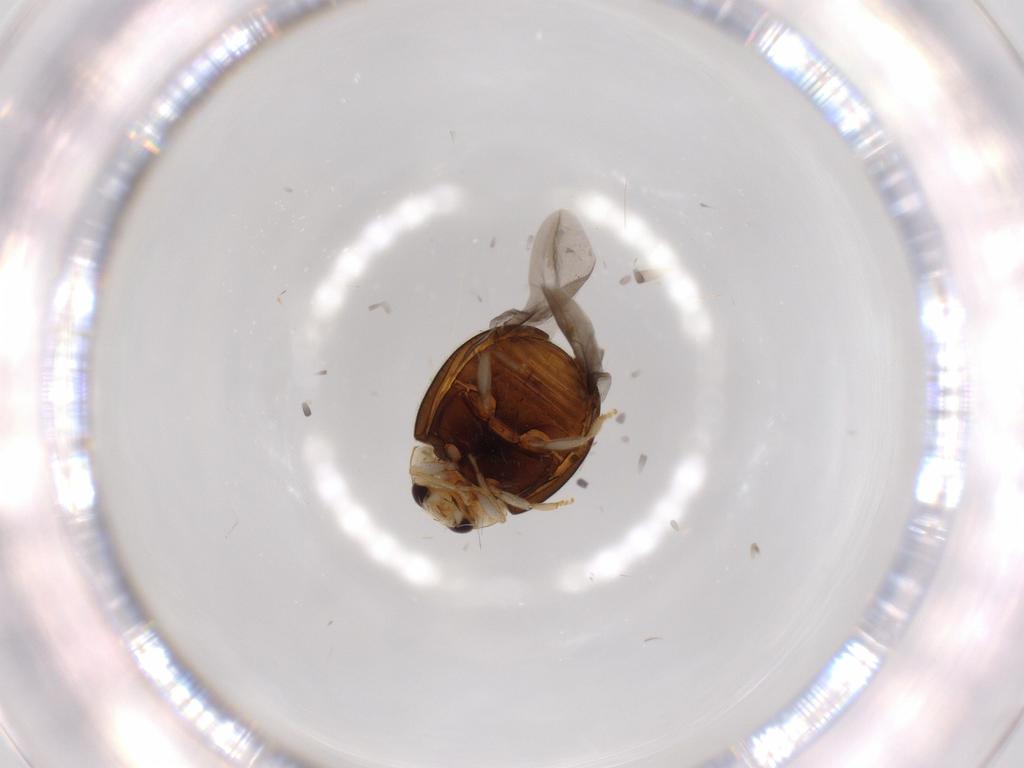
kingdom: Animalia
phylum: Arthropoda
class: Insecta
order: Coleoptera
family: Coccinellidae
